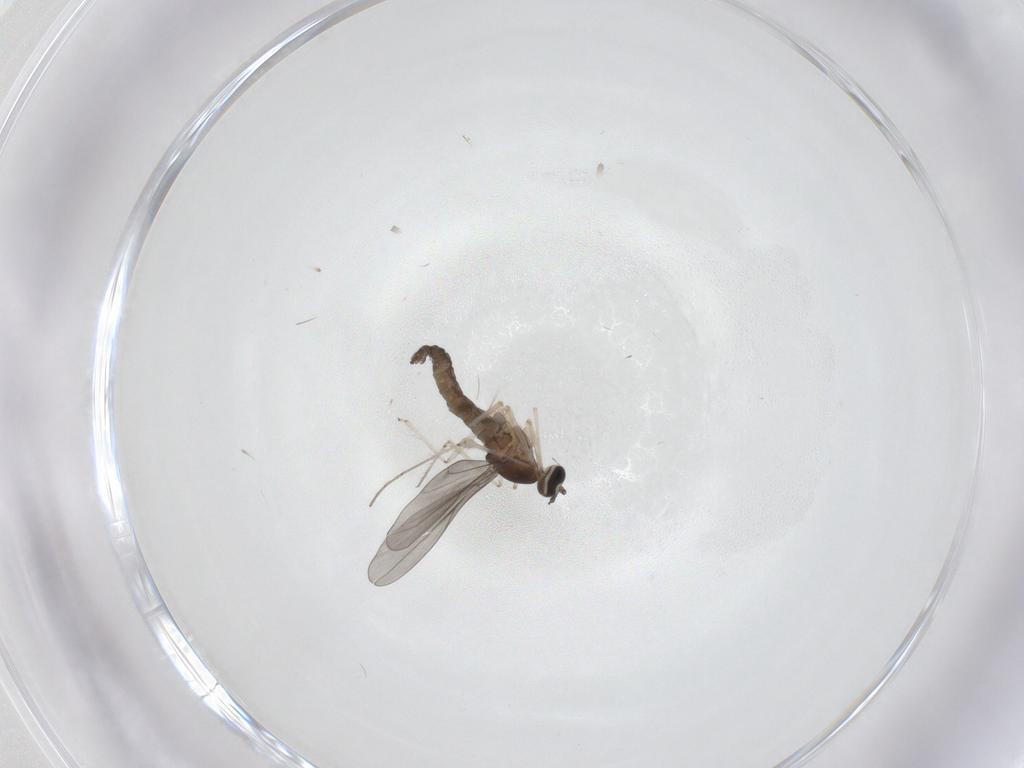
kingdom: Animalia
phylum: Arthropoda
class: Insecta
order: Diptera
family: Cecidomyiidae
